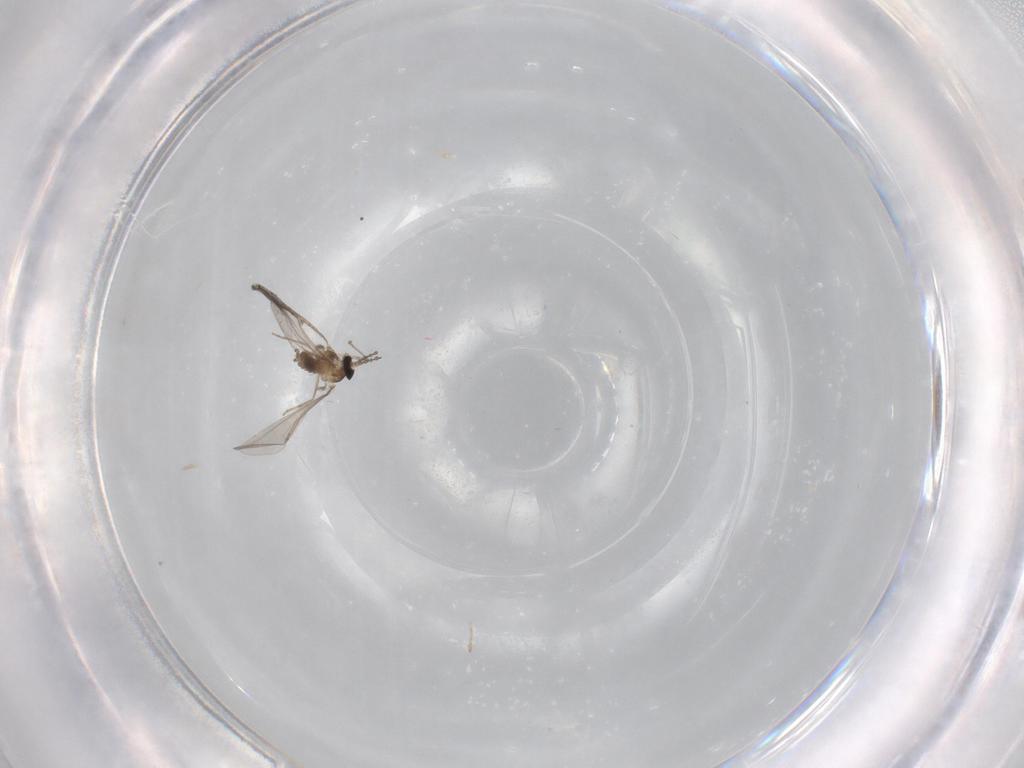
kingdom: Animalia
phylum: Arthropoda
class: Insecta
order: Diptera
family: Cecidomyiidae
